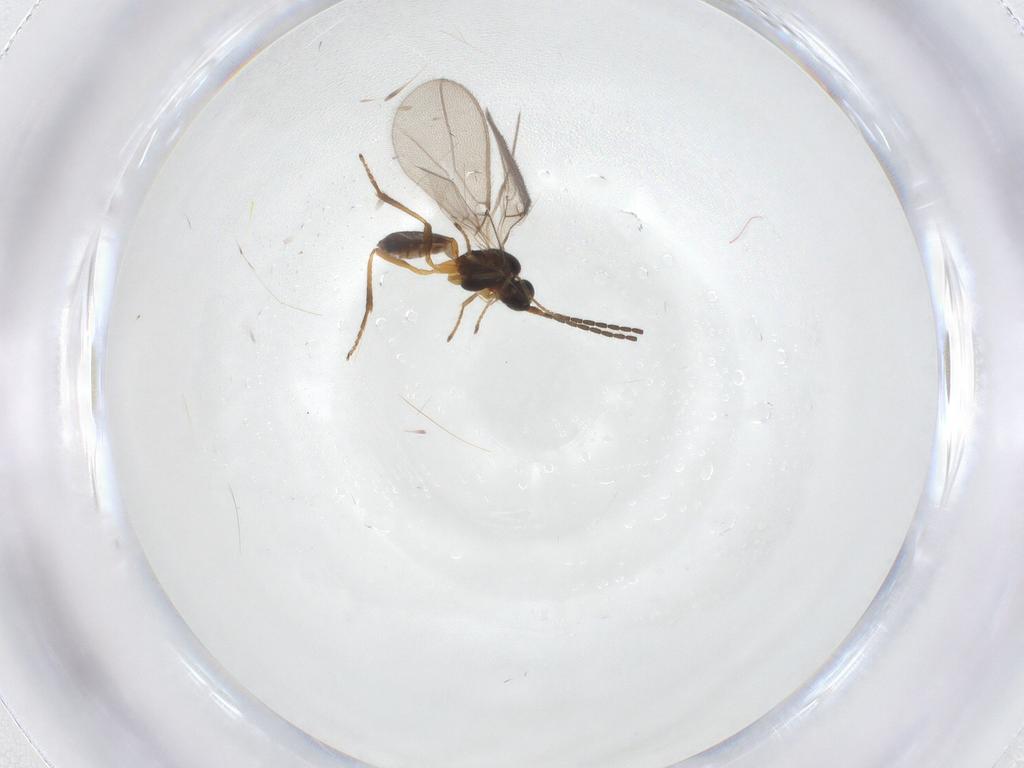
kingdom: Animalia
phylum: Arthropoda
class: Insecta
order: Hymenoptera
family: Braconidae
